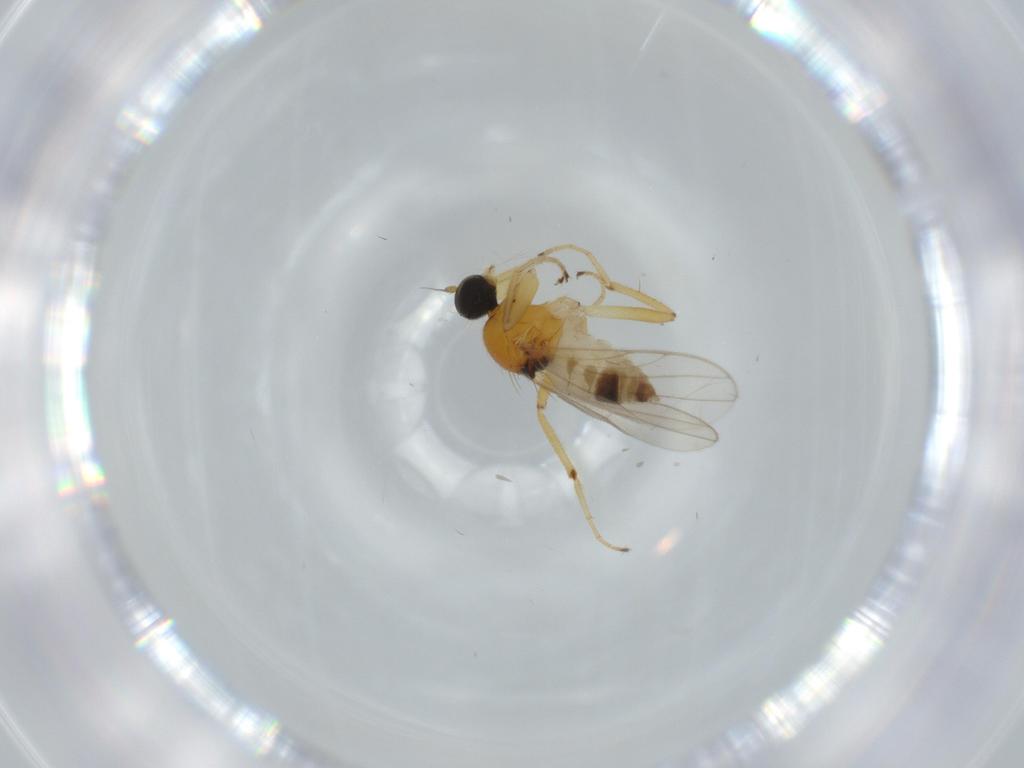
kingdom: Animalia
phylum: Arthropoda
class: Insecta
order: Diptera
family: Hybotidae
